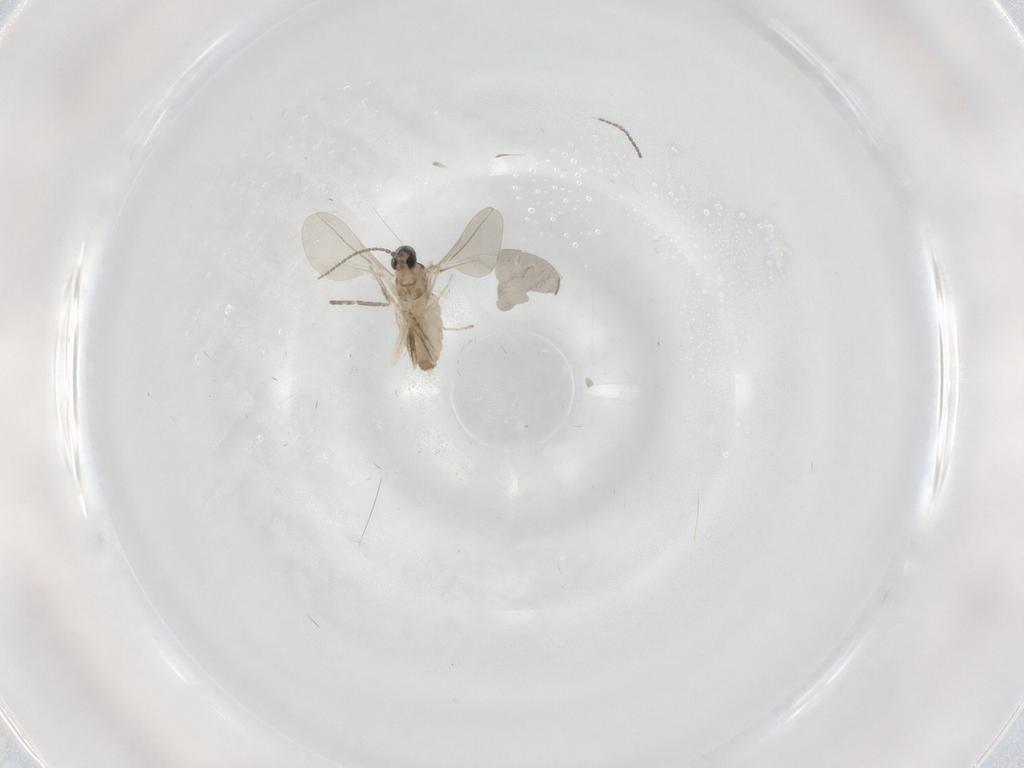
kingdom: Animalia
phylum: Arthropoda
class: Insecta
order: Diptera
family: Cecidomyiidae
